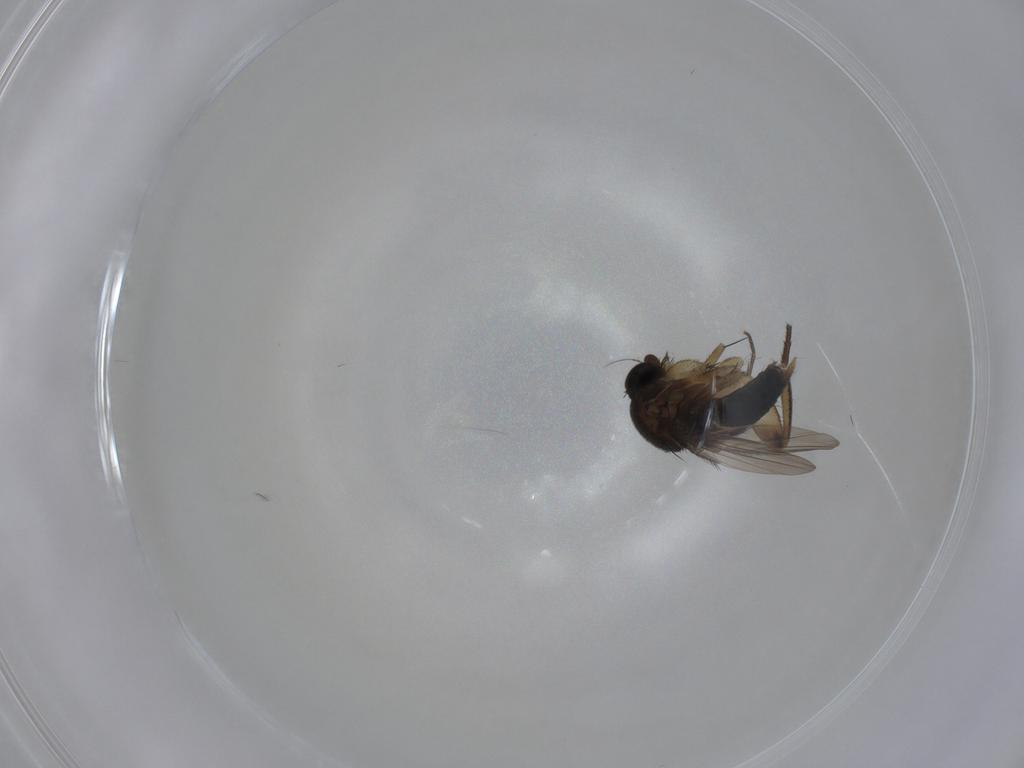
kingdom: Animalia
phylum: Arthropoda
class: Insecta
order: Diptera
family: Phoridae
